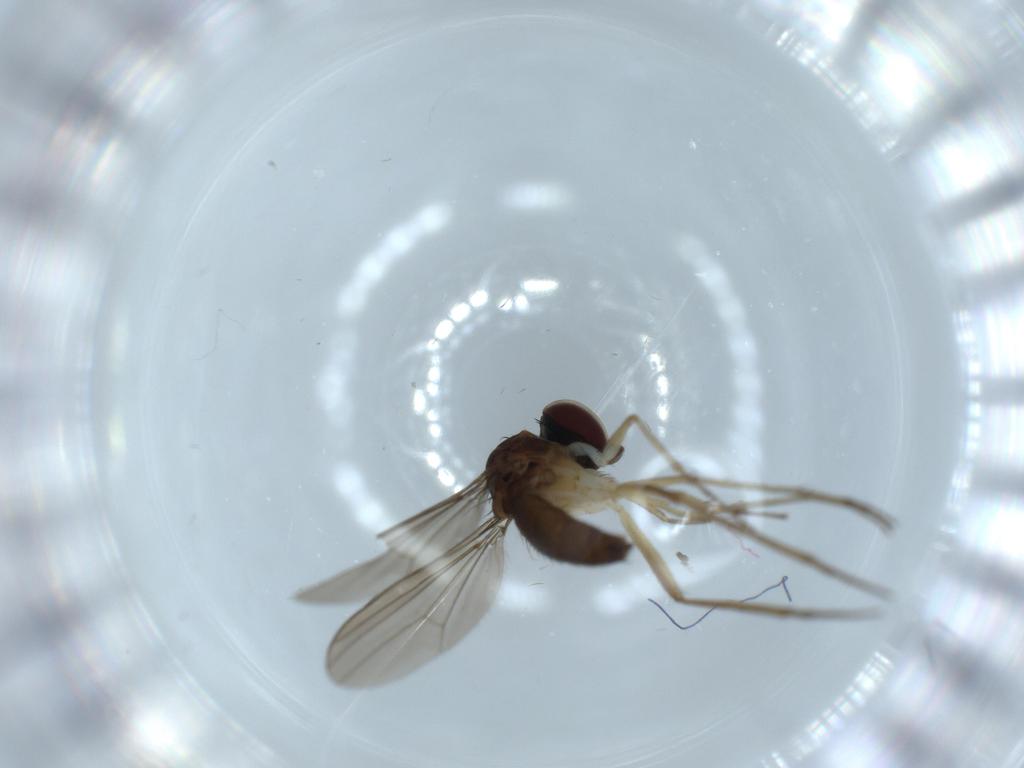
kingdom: Animalia
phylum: Arthropoda
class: Insecta
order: Diptera
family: Dolichopodidae
